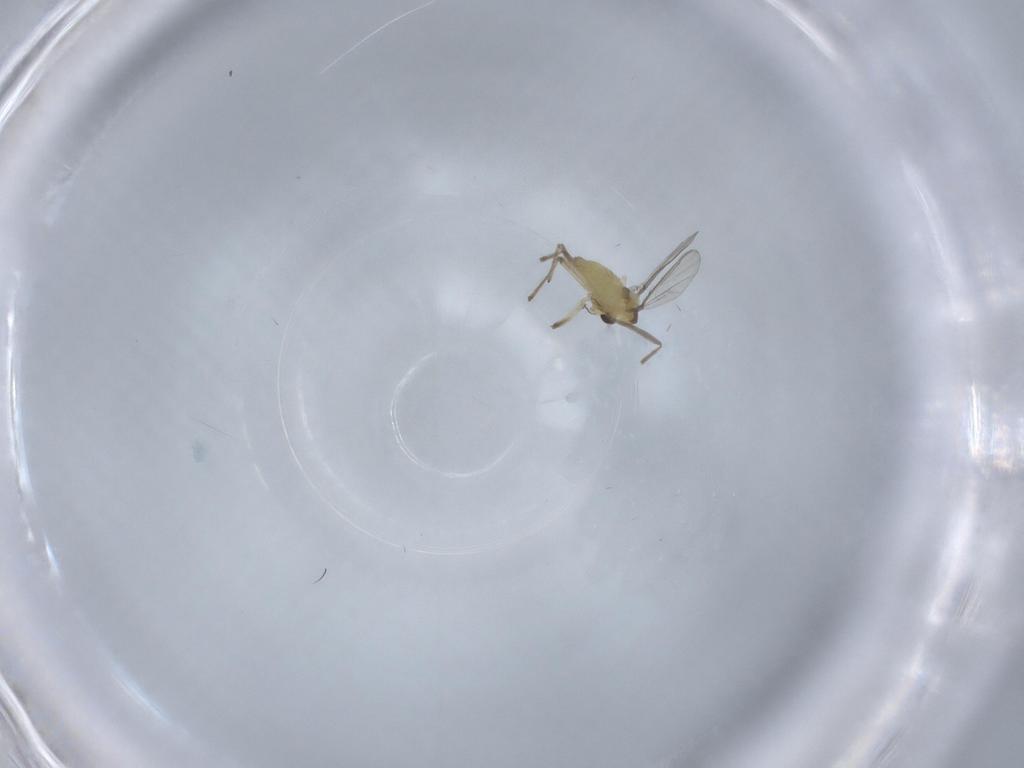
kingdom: Animalia
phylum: Arthropoda
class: Insecta
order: Diptera
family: Chironomidae
